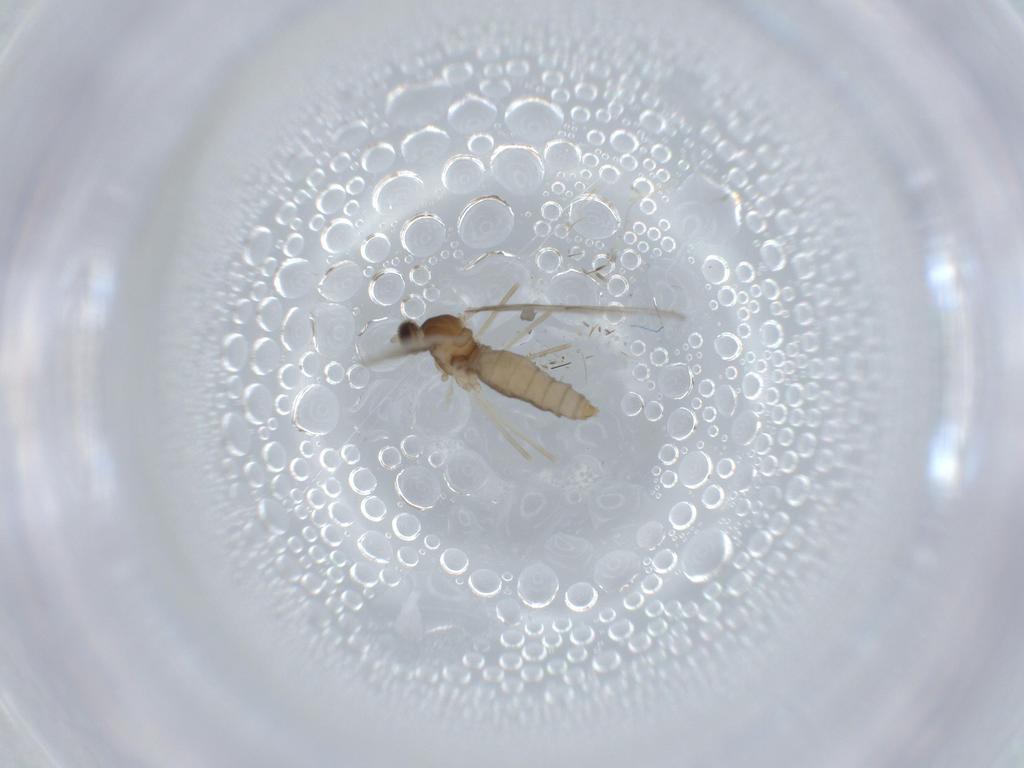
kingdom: Animalia
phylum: Arthropoda
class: Insecta
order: Diptera
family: Cecidomyiidae
